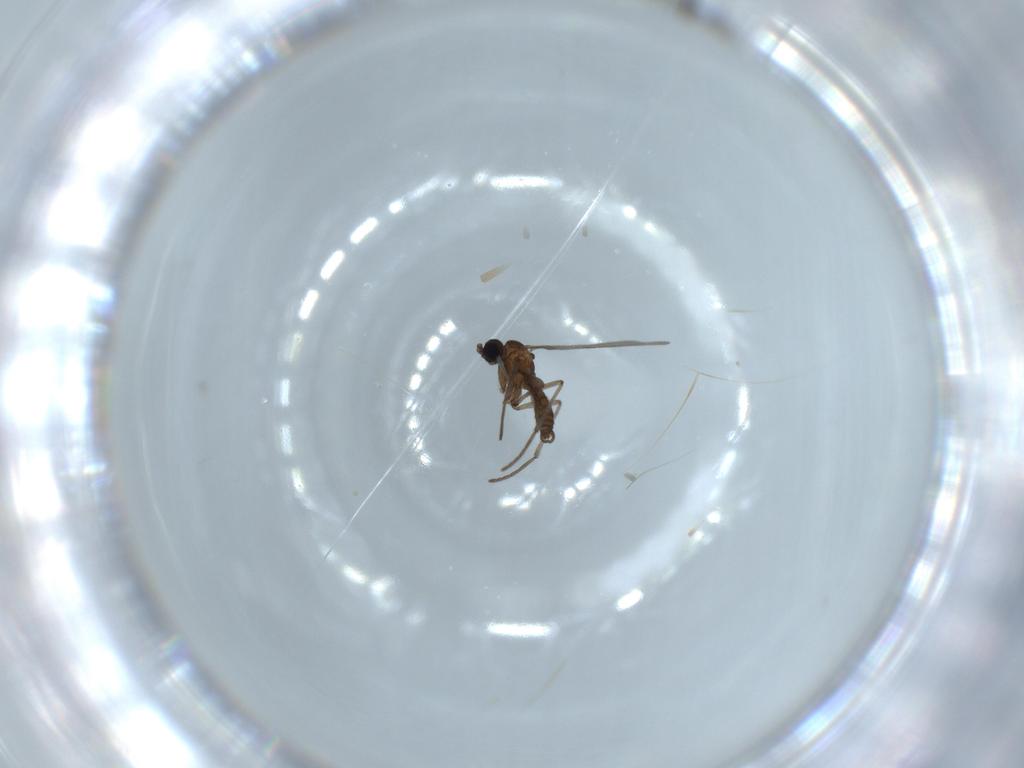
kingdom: Animalia
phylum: Arthropoda
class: Insecta
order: Diptera
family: Sciaridae
